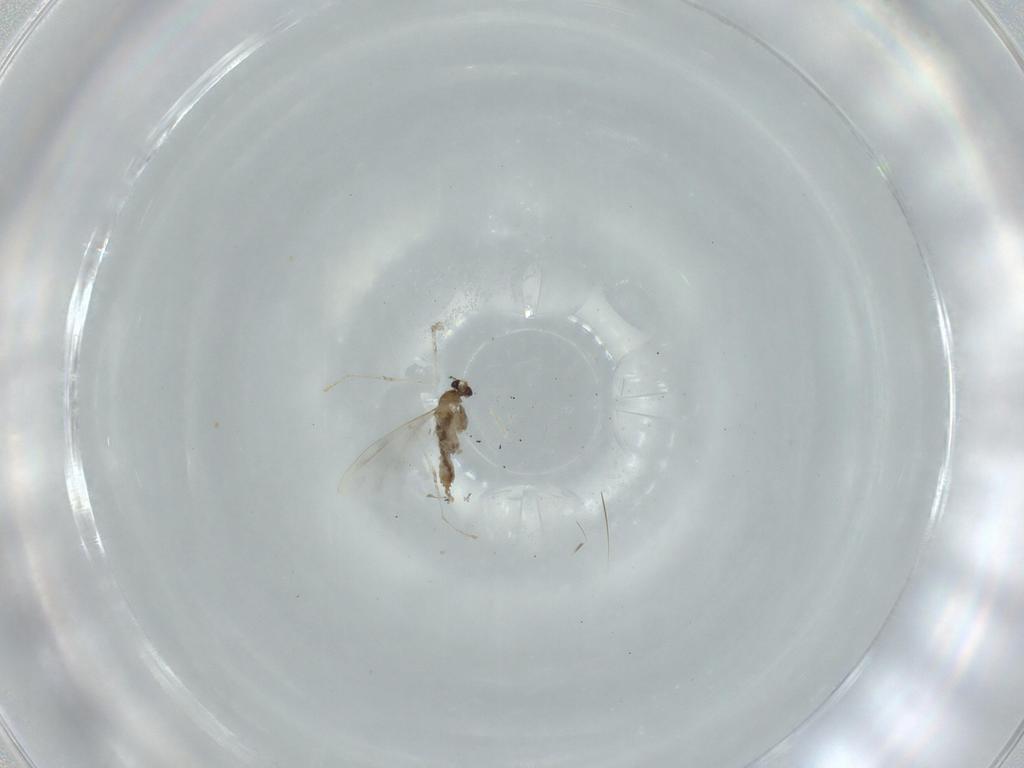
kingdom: Animalia
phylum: Arthropoda
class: Insecta
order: Diptera
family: Cecidomyiidae
